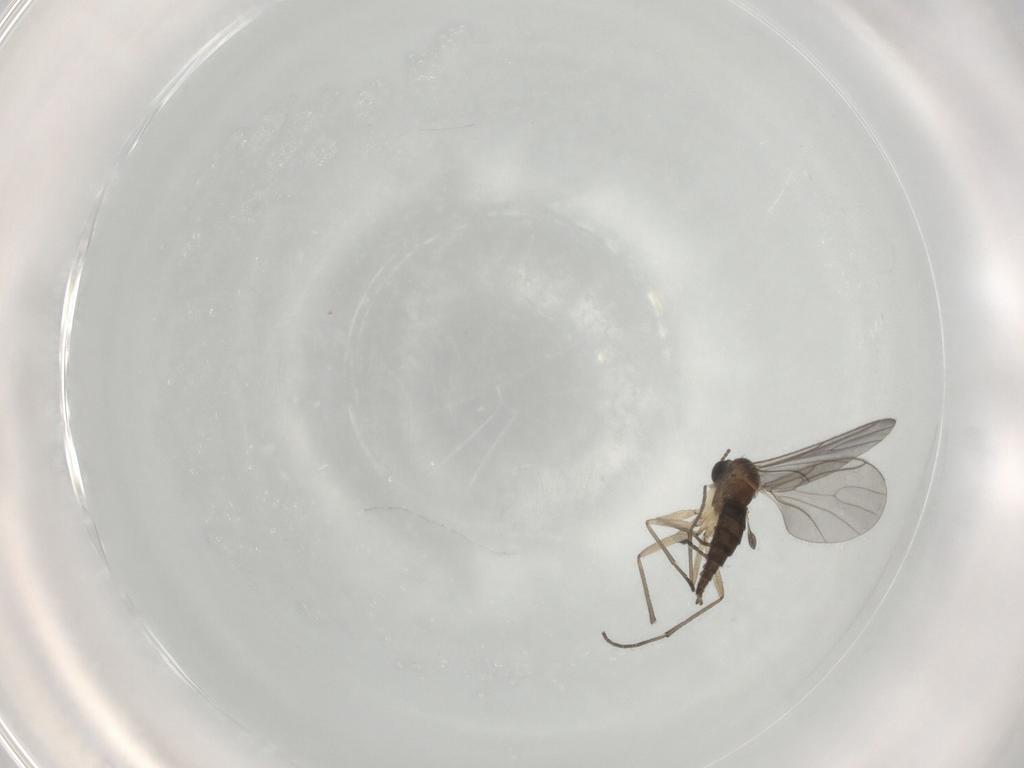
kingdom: Animalia
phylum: Arthropoda
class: Insecta
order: Diptera
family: Sciaridae
